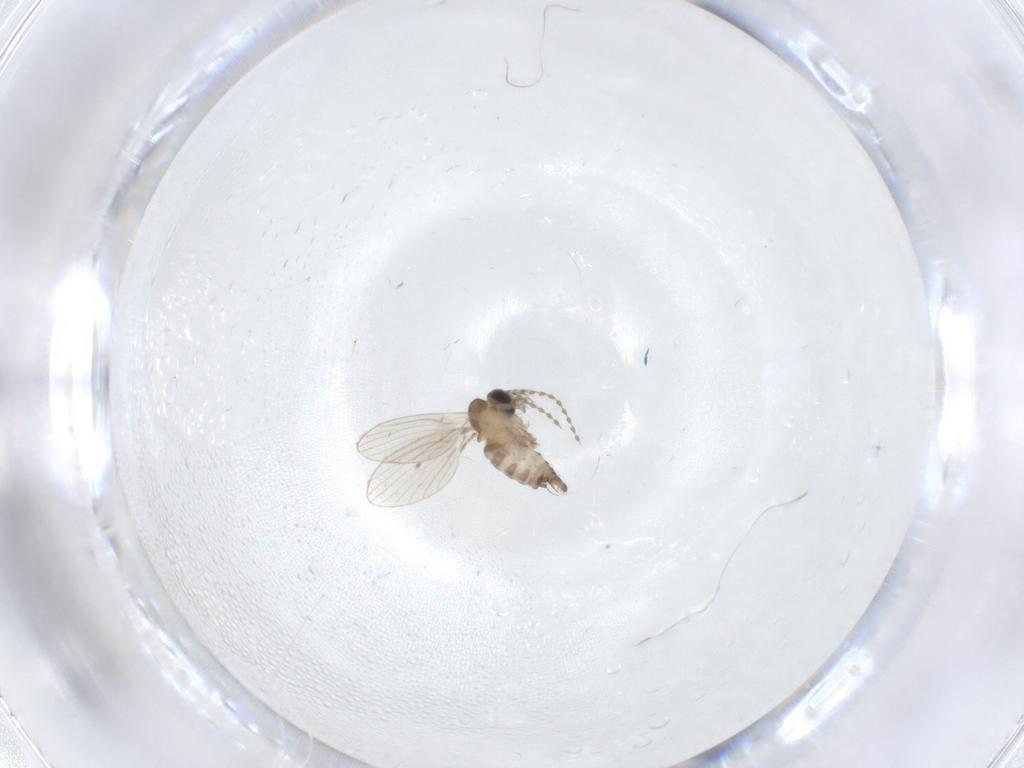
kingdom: Animalia
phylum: Arthropoda
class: Insecta
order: Diptera
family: Psychodidae
